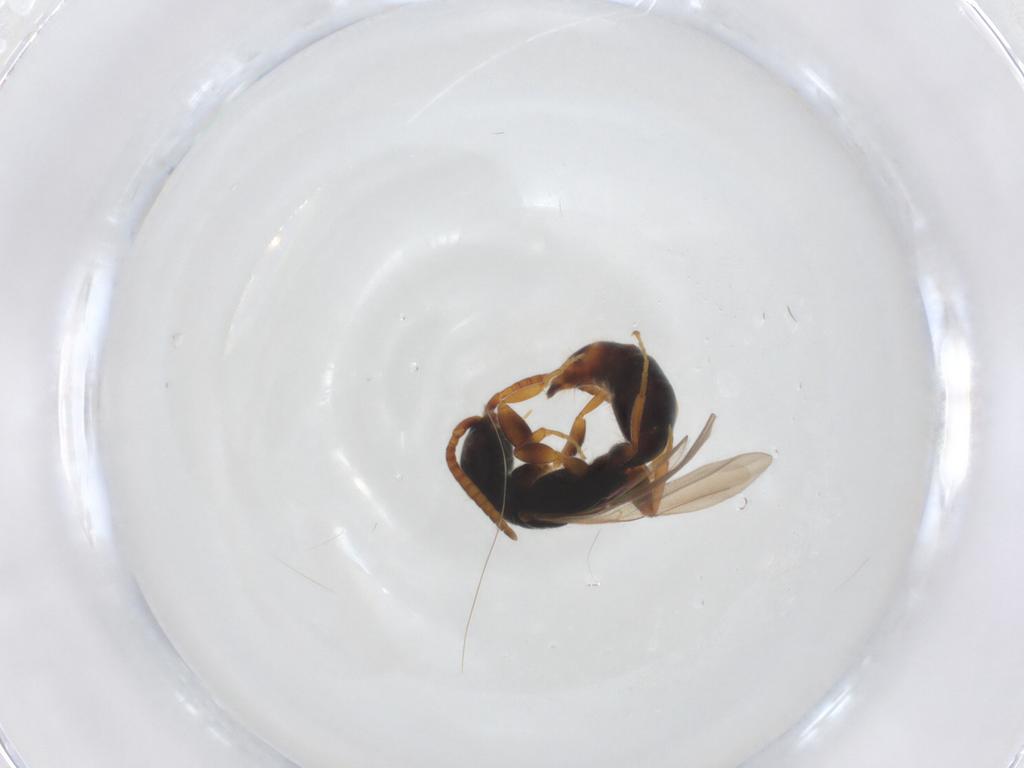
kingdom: Animalia
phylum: Arthropoda
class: Insecta
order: Hymenoptera
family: Bethylidae
